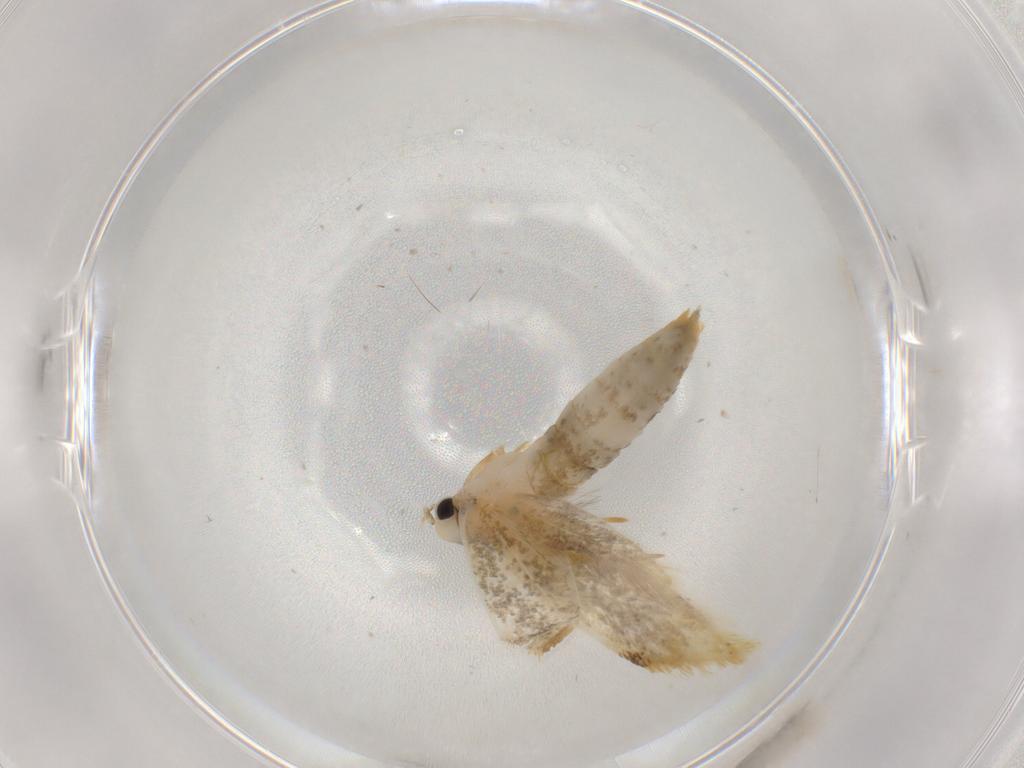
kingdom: Animalia
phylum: Arthropoda
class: Insecta
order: Lepidoptera
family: Tineidae
